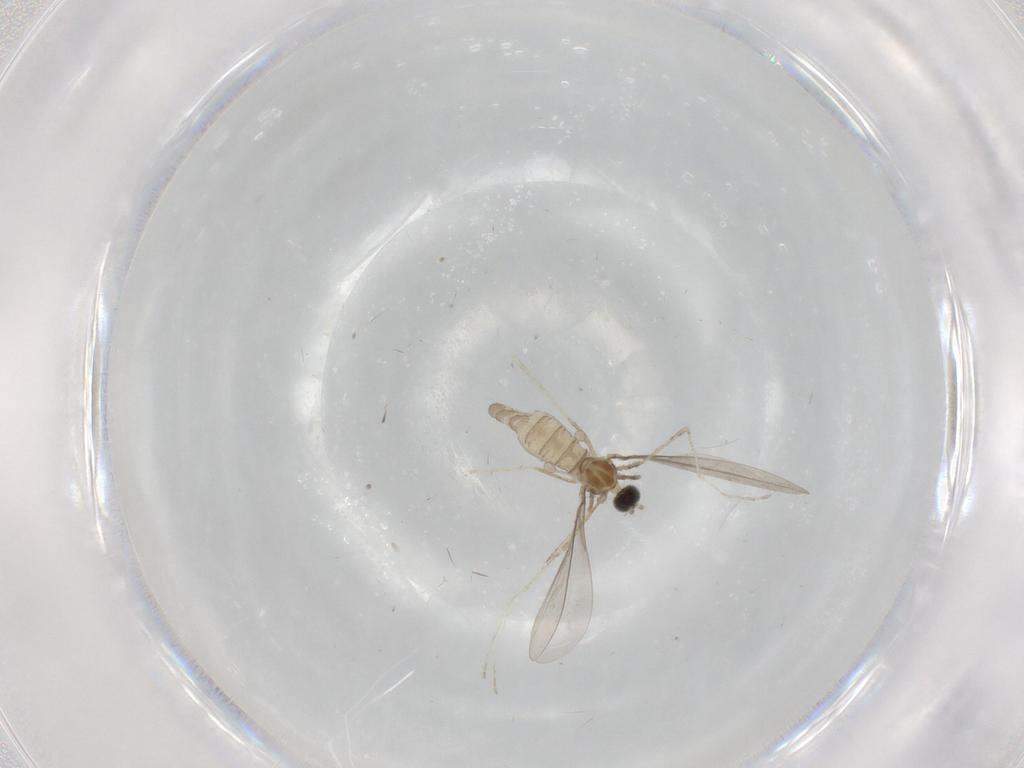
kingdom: Animalia
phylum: Arthropoda
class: Insecta
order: Diptera
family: Cecidomyiidae
